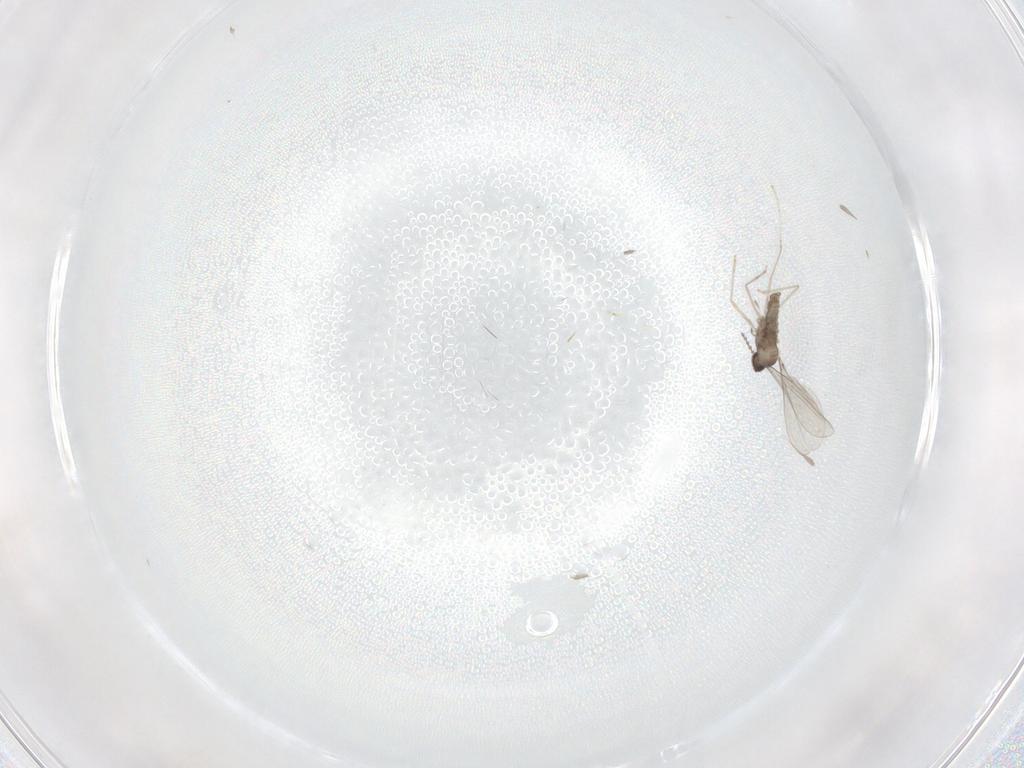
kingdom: Animalia
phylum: Arthropoda
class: Insecta
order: Diptera
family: Cecidomyiidae
